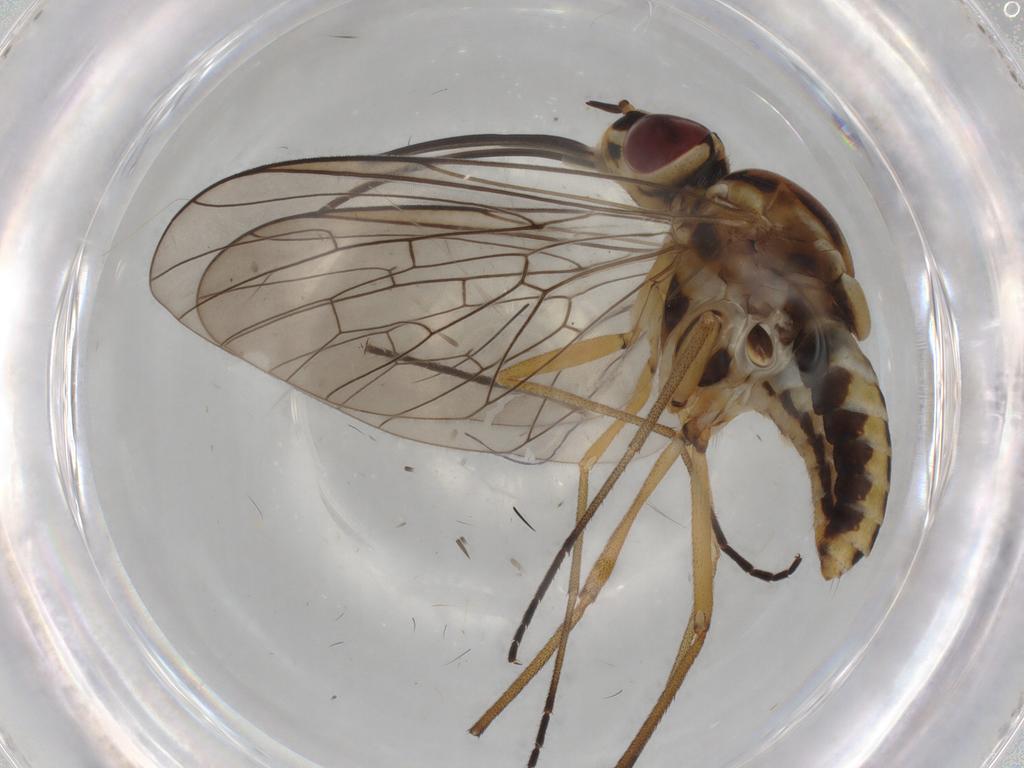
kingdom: Animalia
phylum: Arthropoda
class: Insecta
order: Diptera
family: Bombyliidae
